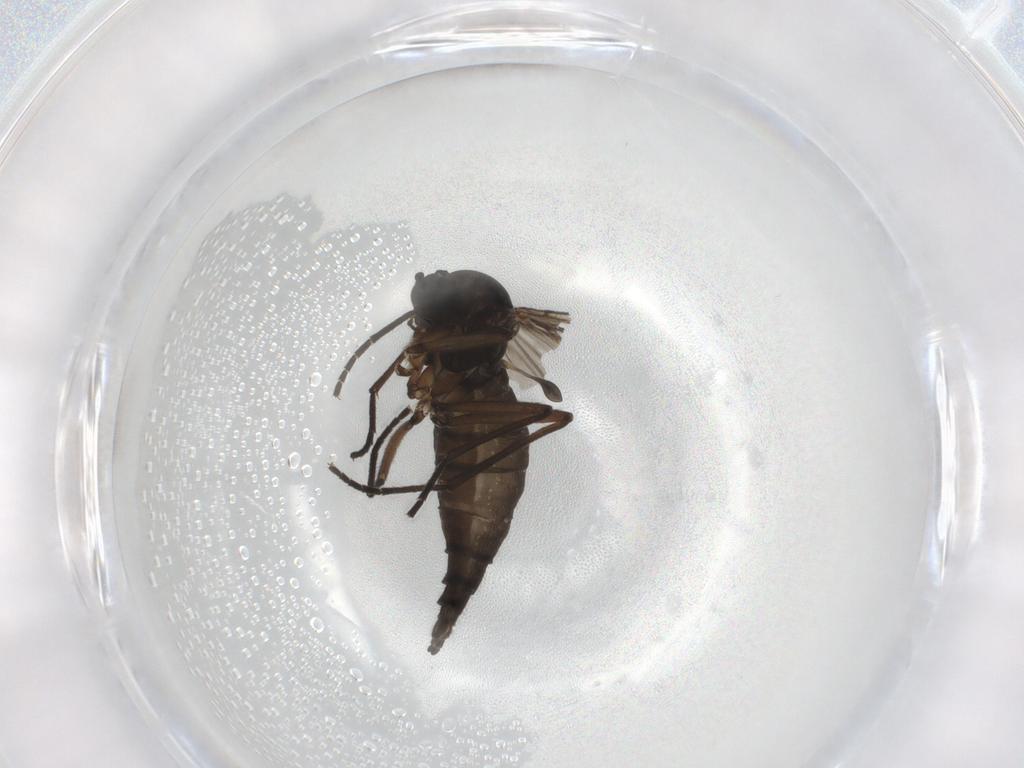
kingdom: Animalia
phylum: Arthropoda
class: Insecta
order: Diptera
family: Sciaridae
